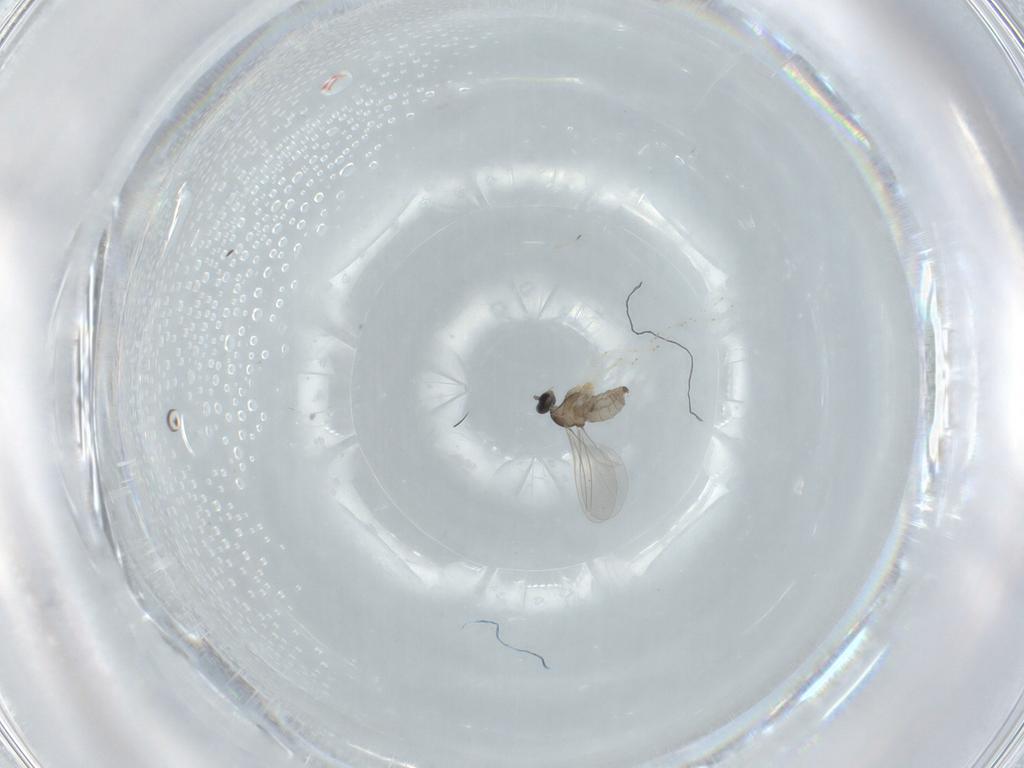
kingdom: Animalia
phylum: Arthropoda
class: Insecta
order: Diptera
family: Cecidomyiidae
